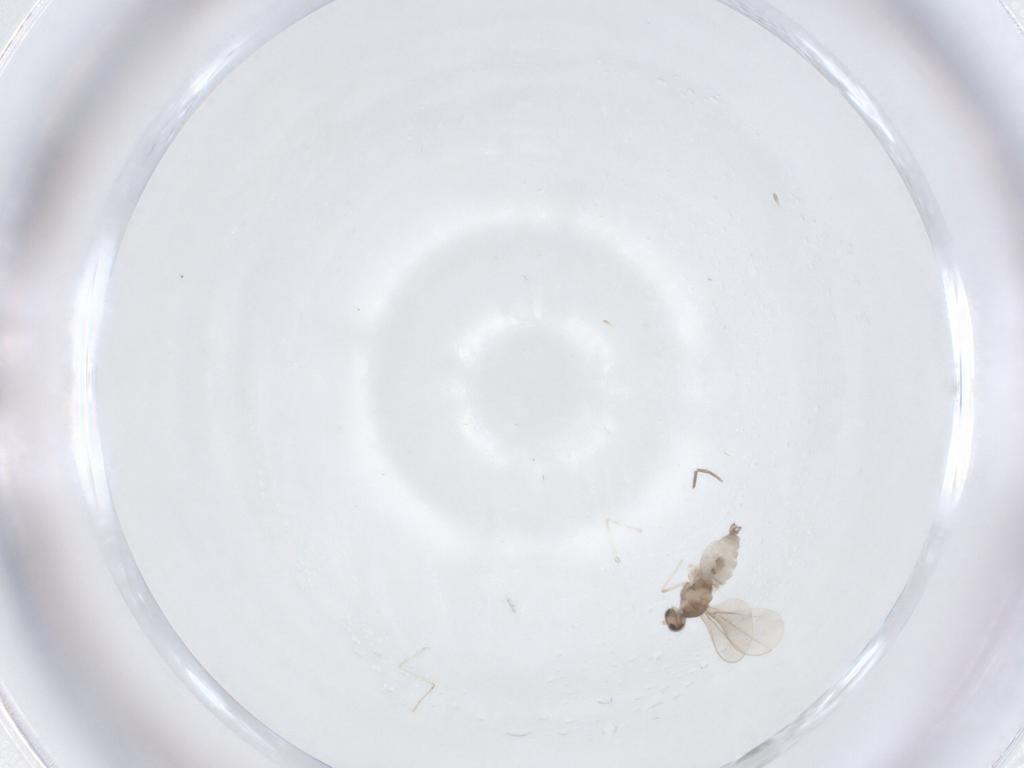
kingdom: Animalia
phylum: Arthropoda
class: Insecta
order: Diptera
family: Cecidomyiidae
